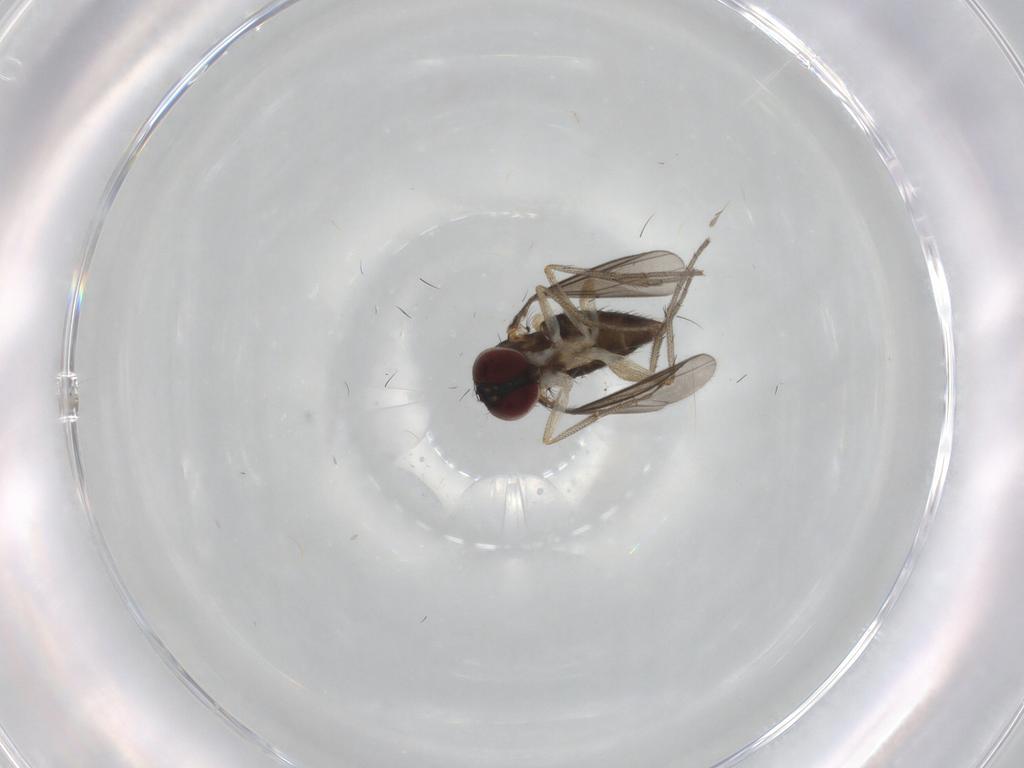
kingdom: Animalia
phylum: Arthropoda
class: Insecta
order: Diptera
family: Dolichopodidae
